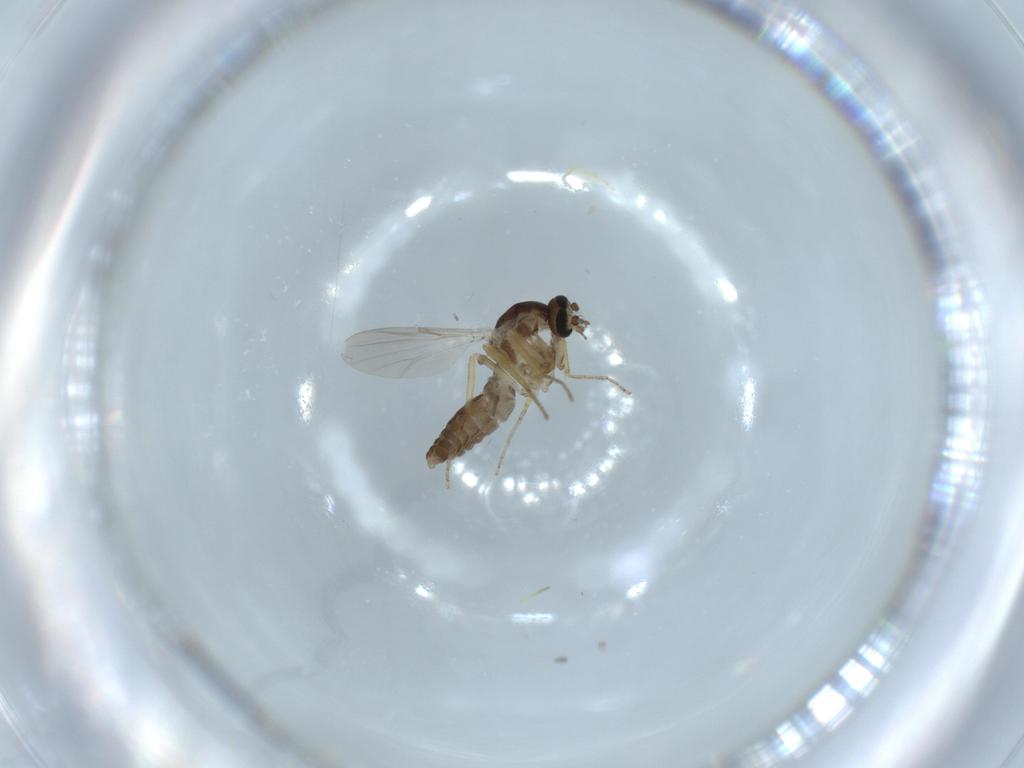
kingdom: Animalia
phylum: Arthropoda
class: Insecta
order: Diptera
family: Ceratopogonidae
